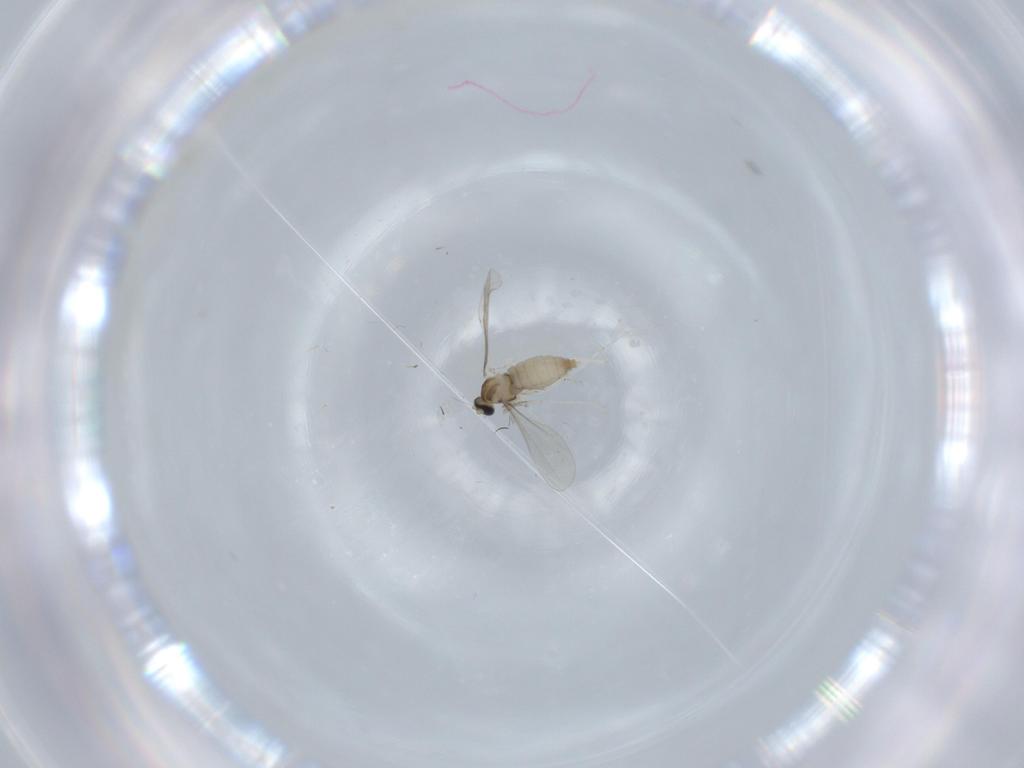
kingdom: Animalia
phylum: Arthropoda
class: Insecta
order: Diptera
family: Cecidomyiidae
